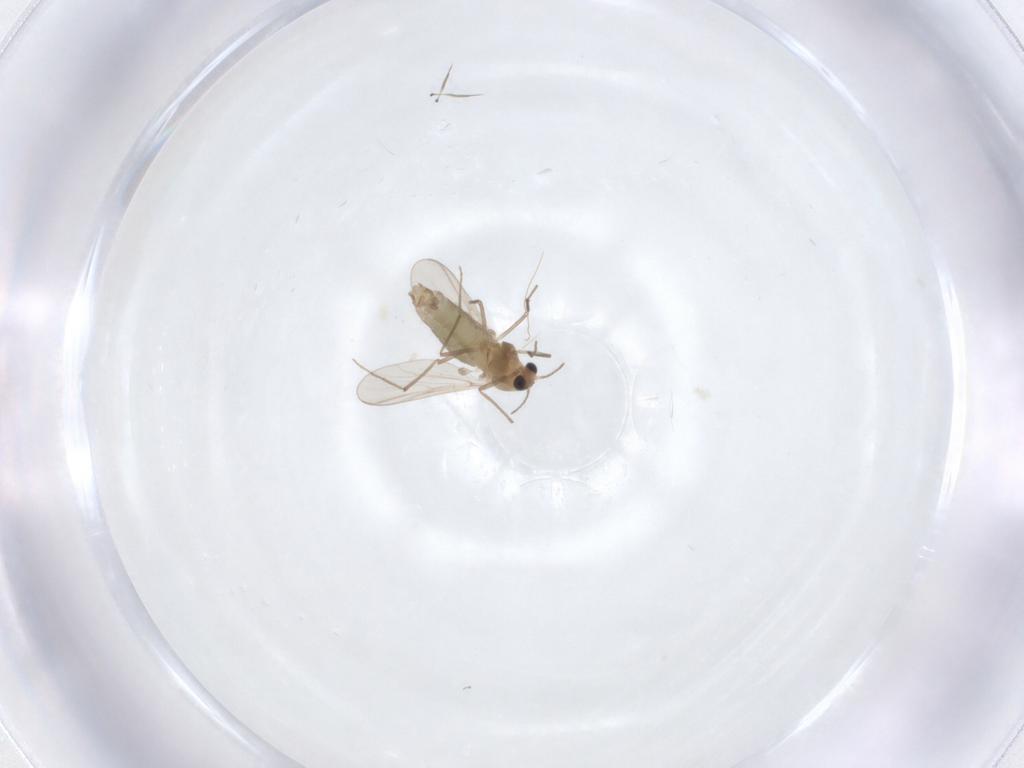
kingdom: Animalia
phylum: Arthropoda
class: Insecta
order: Diptera
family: Chironomidae
